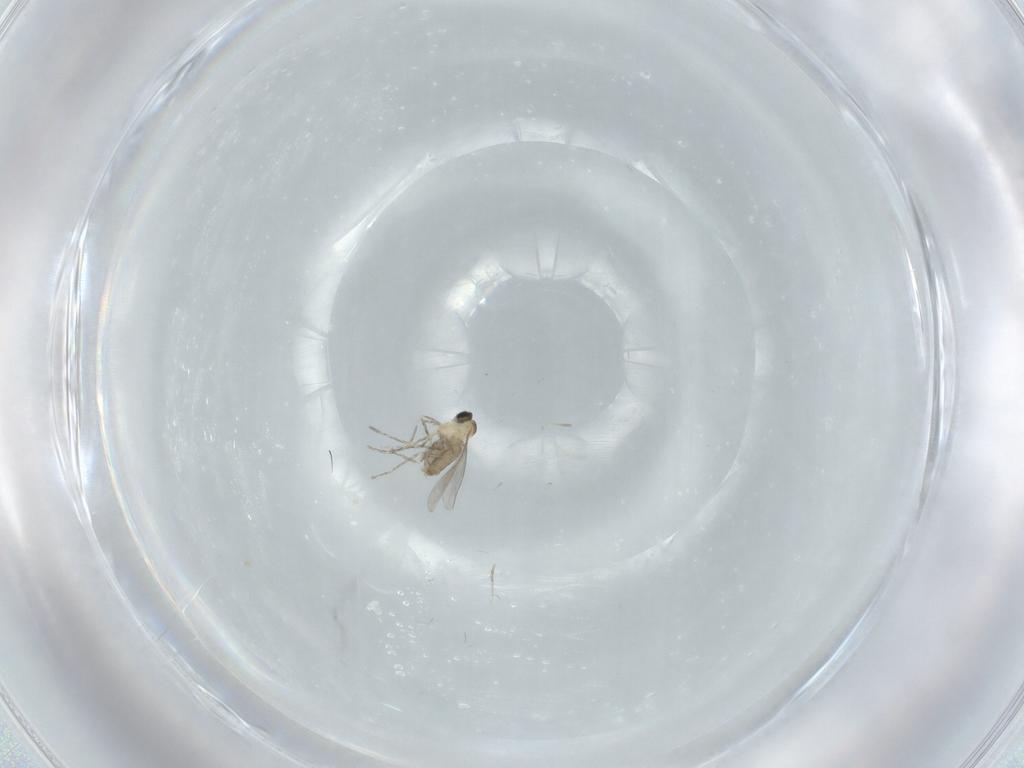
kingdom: Animalia
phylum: Arthropoda
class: Insecta
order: Diptera
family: Cecidomyiidae
